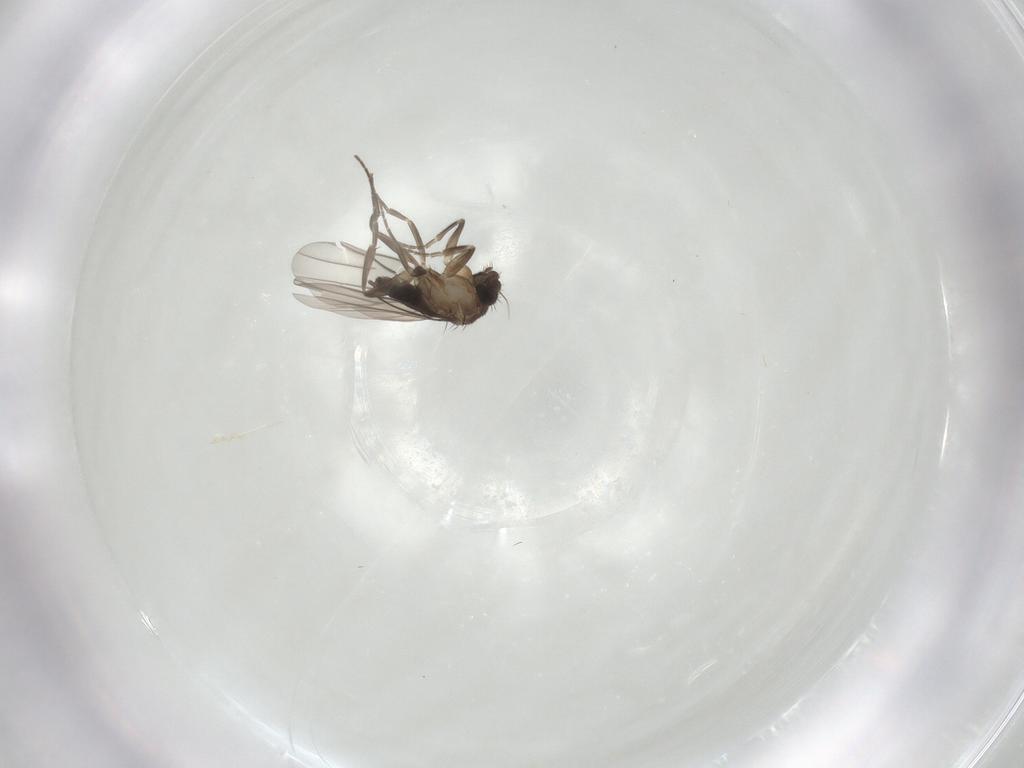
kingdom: Animalia
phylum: Arthropoda
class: Insecta
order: Diptera
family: Phoridae
